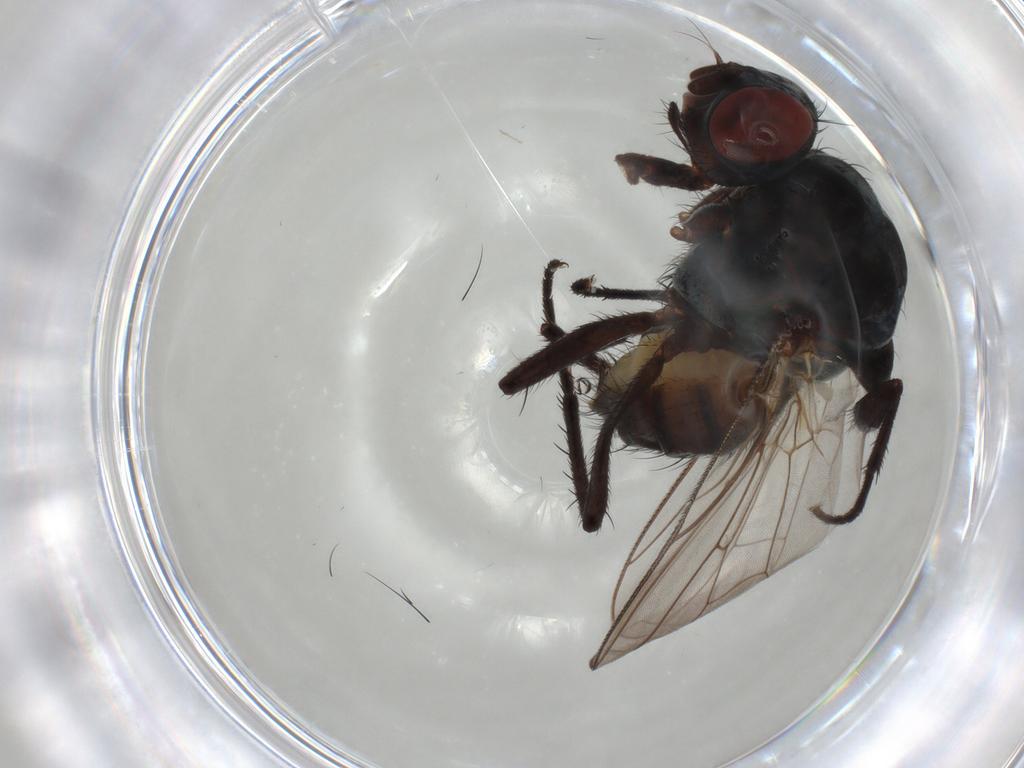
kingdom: Animalia
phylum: Arthropoda
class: Insecta
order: Diptera
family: Anthomyiidae
